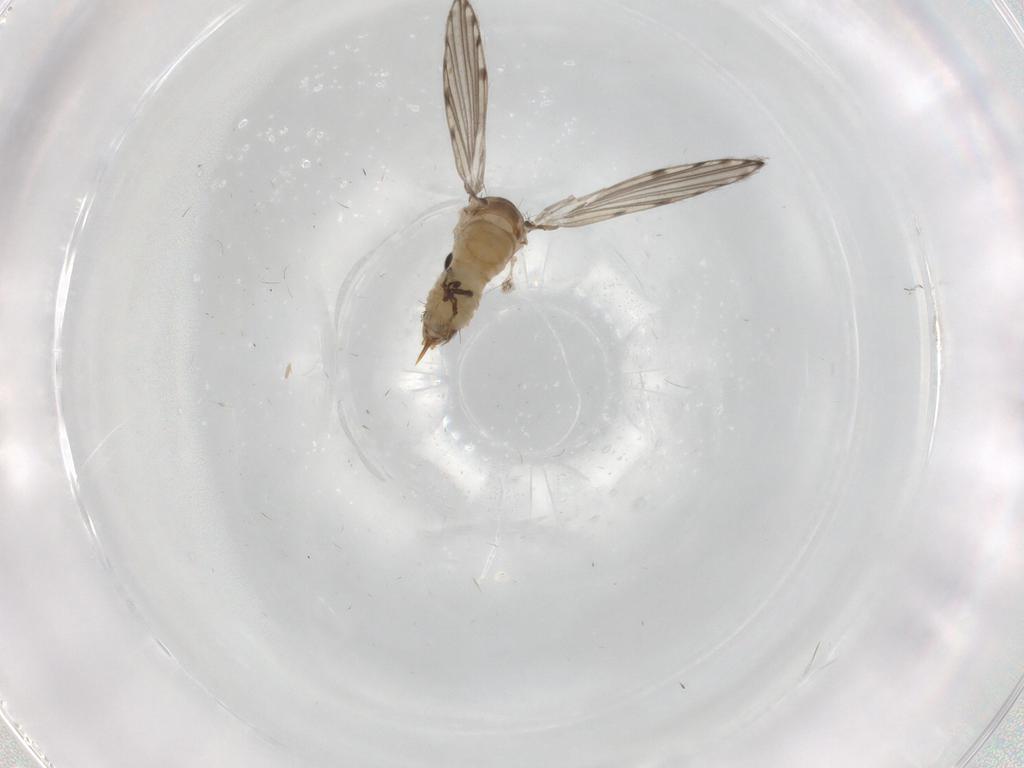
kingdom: Animalia
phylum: Arthropoda
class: Insecta
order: Diptera
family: Psychodidae
